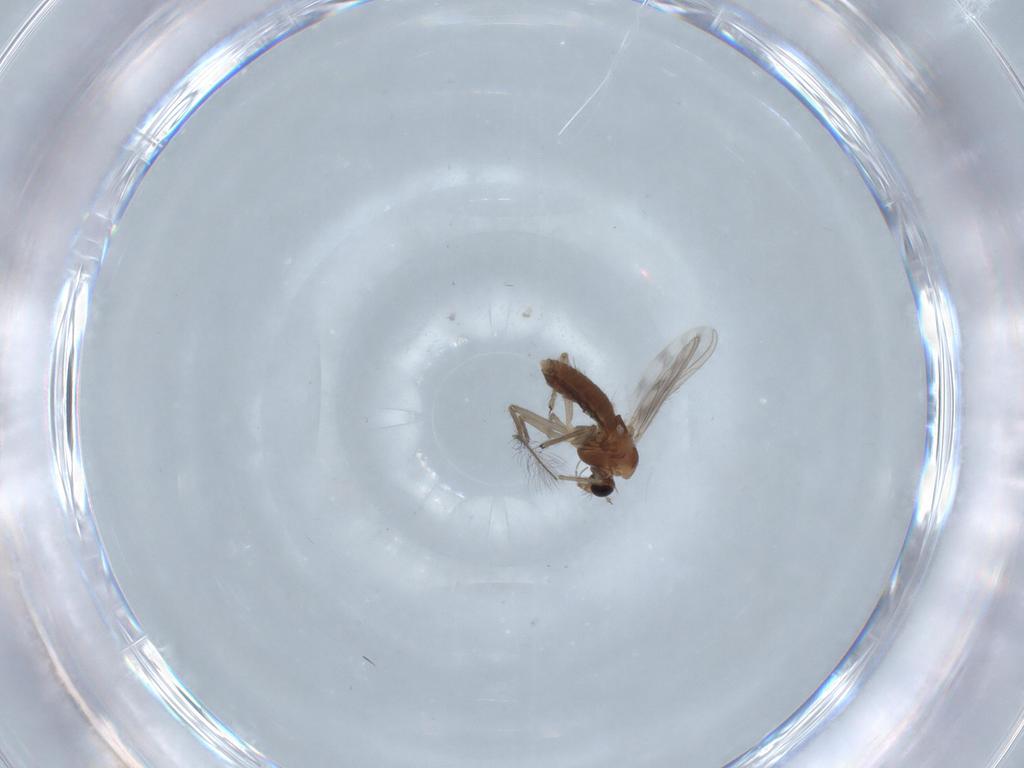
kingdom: Animalia
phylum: Arthropoda
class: Insecta
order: Diptera
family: Chironomidae
